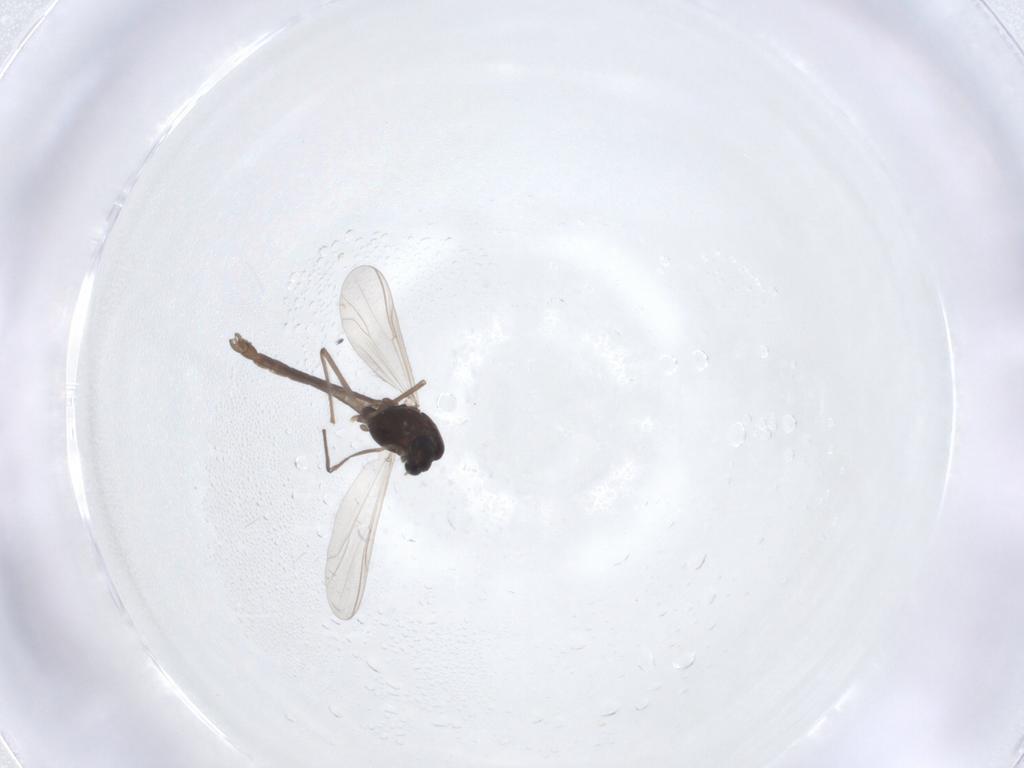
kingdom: Animalia
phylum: Arthropoda
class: Insecta
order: Diptera
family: Chironomidae
